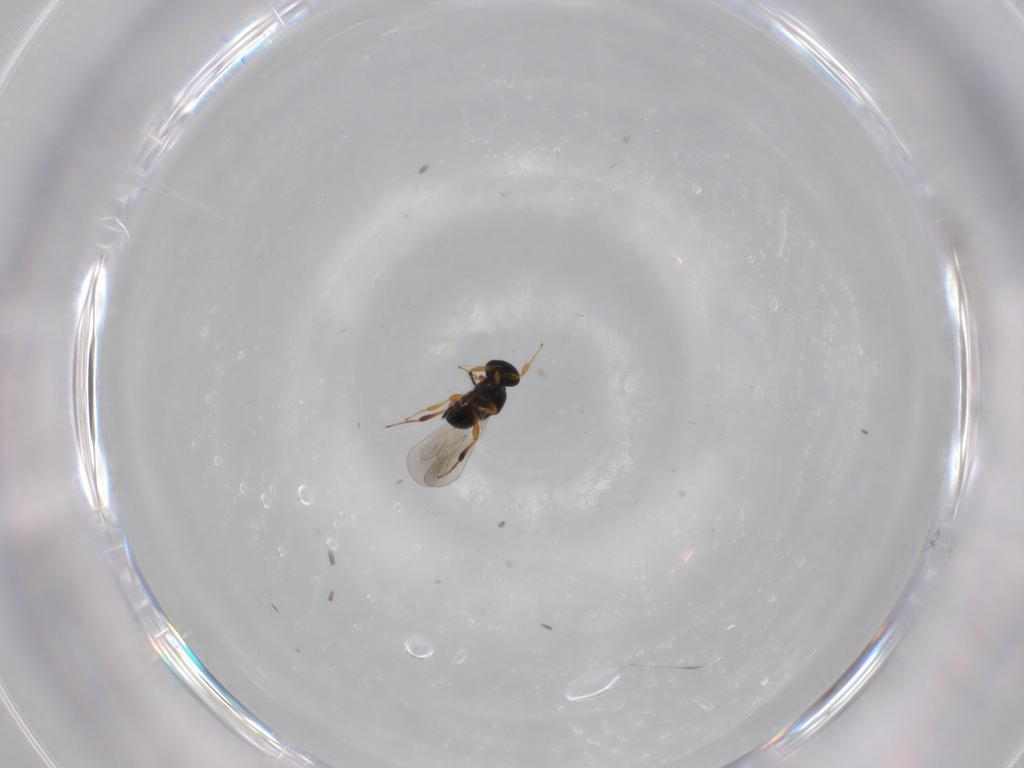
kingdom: Animalia
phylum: Arthropoda
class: Insecta
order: Hymenoptera
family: Platygastridae
